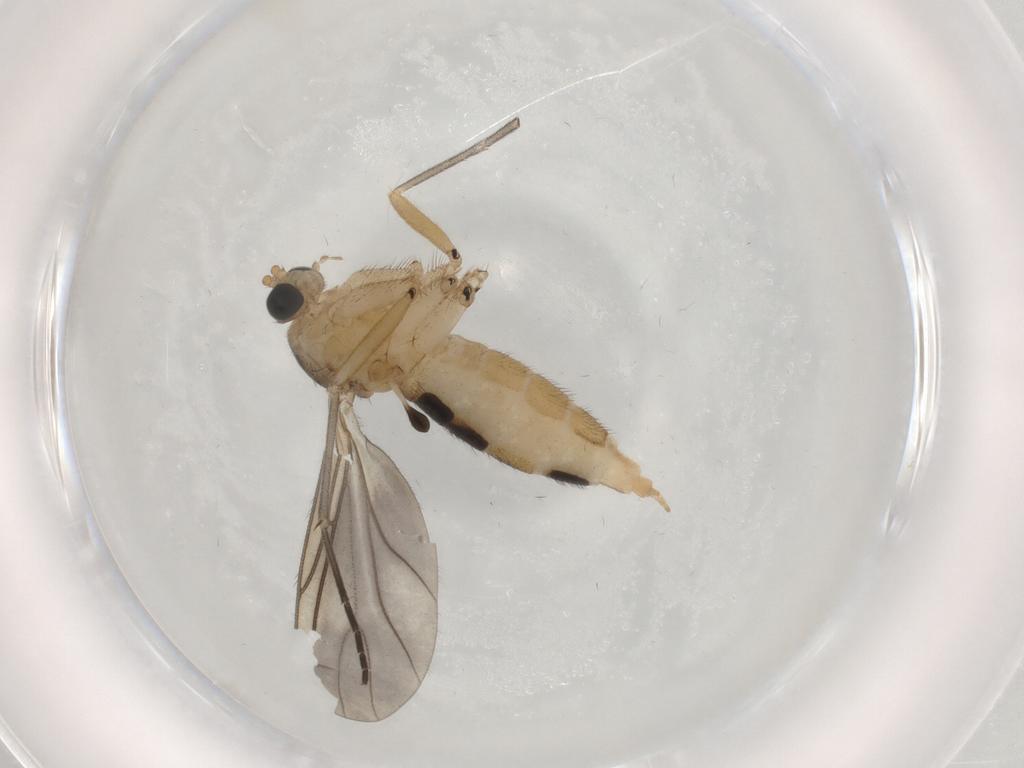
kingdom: Animalia
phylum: Arthropoda
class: Insecta
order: Diptera
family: Sciaridae
